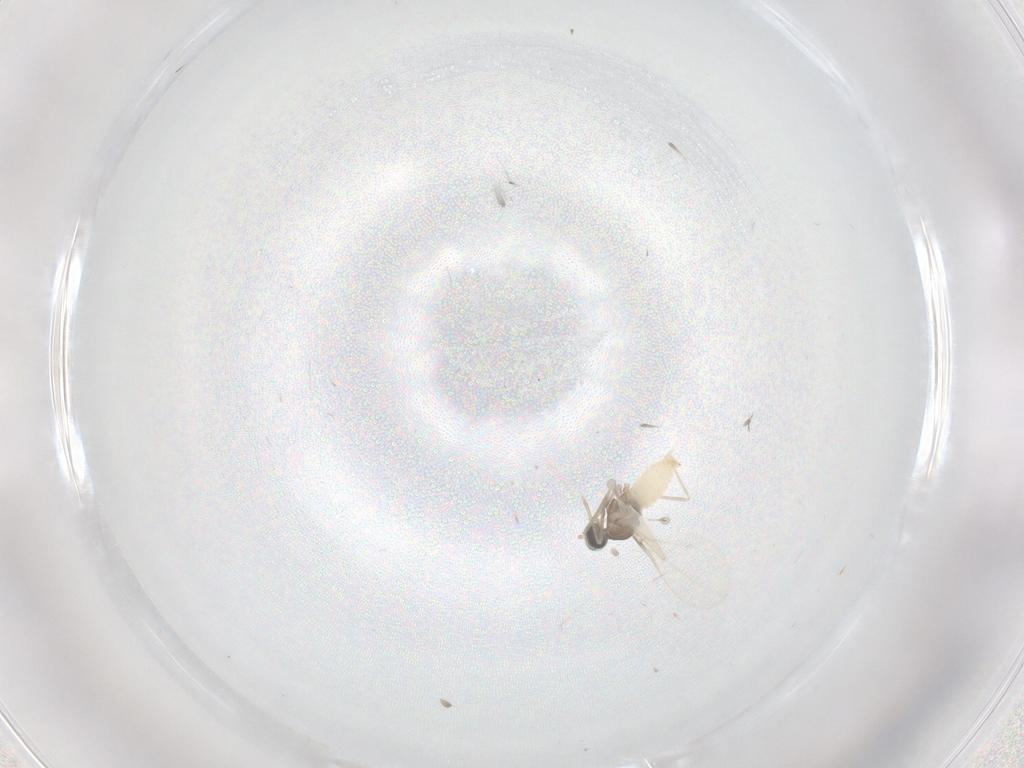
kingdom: Animalia
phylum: Arthropoda
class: Insecta
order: Diptera
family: Cecidomyiidae
